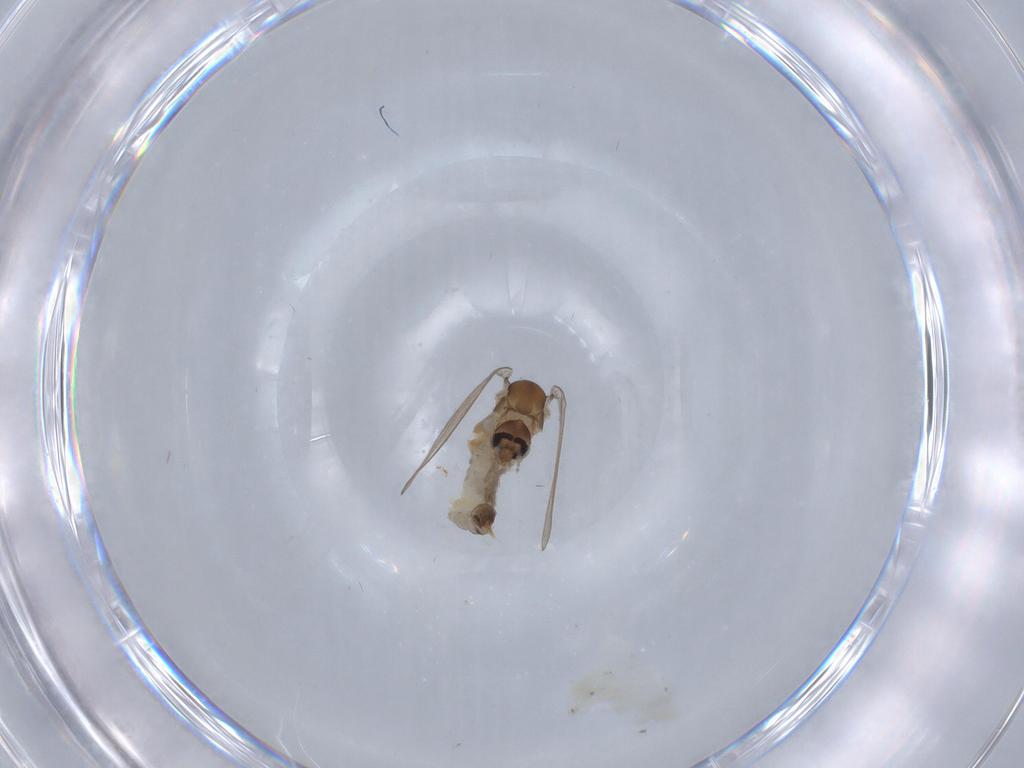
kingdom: Animalia
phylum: Arthropoda
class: Insecta
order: Diptera
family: Psychodidae
